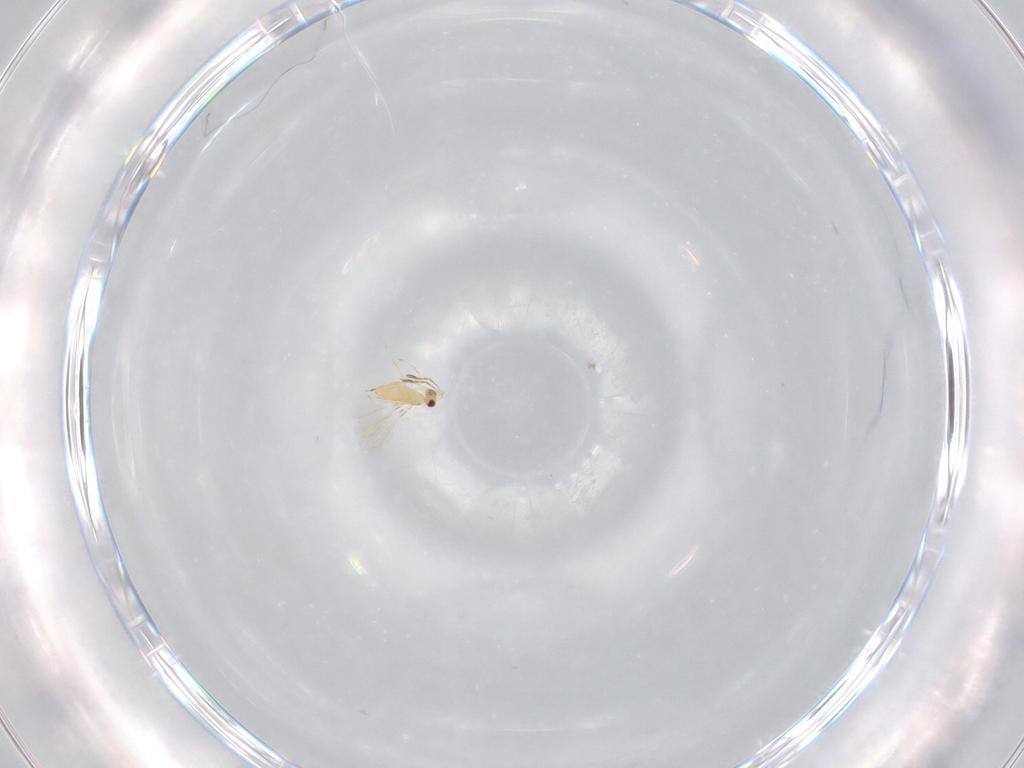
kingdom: Animalia
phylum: Arthropoda
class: Insecta
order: Hymenoptera
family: Mymaridae
